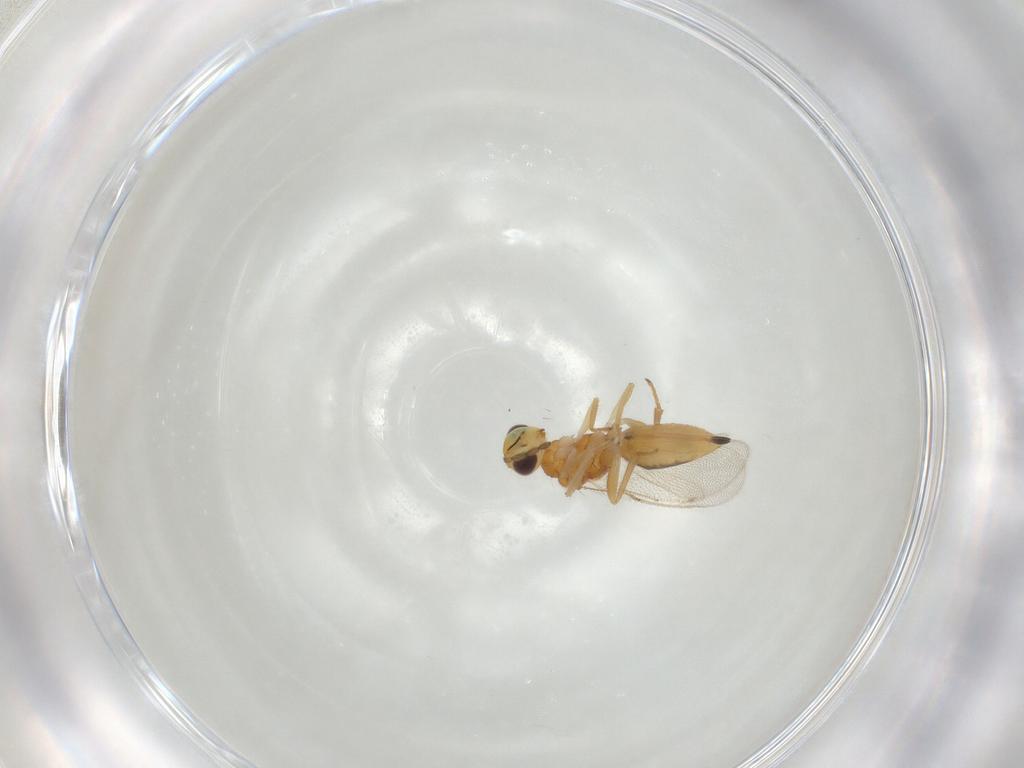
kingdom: Animalia
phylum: Arthropoda
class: Insecta
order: Hymenoptera
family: Eulophidae
